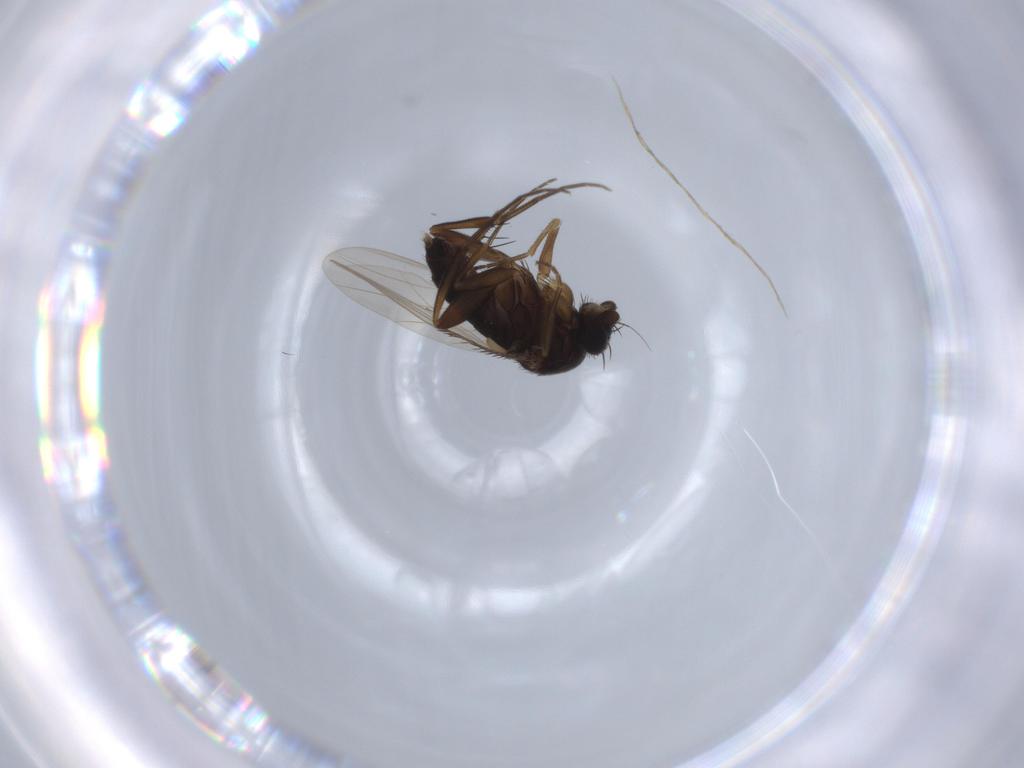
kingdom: Animalia
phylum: Arthropoda
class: Insecta
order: Diptera
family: Phoridae
